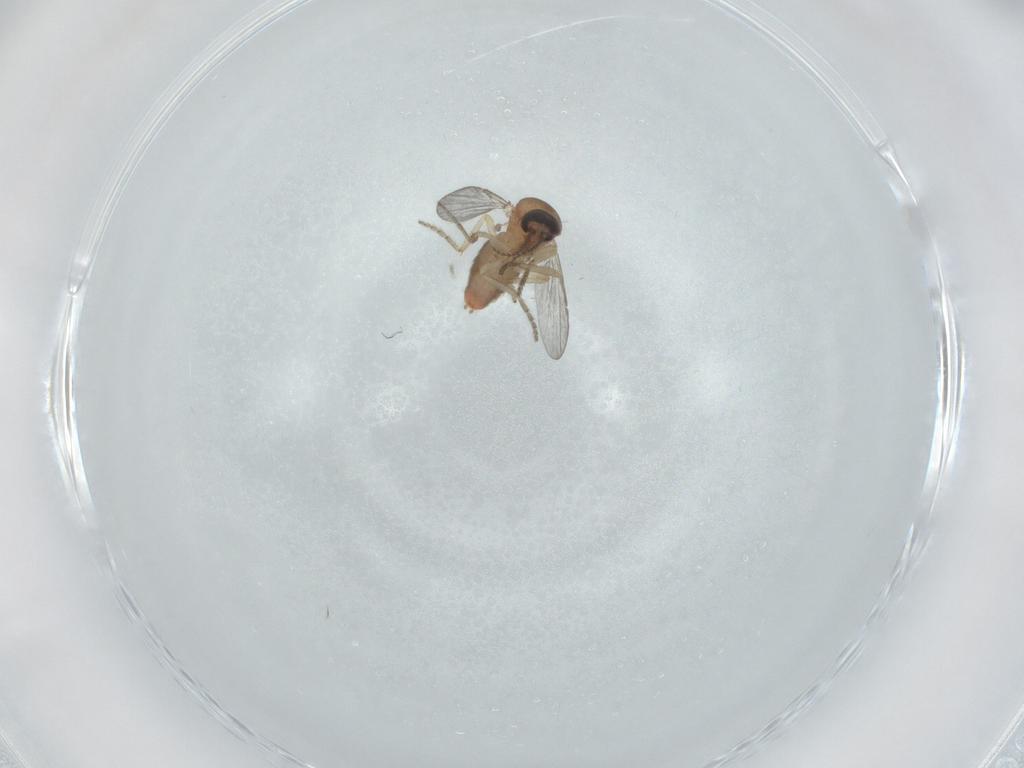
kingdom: Animalia
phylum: Arthropoda
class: Insecta
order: Diptera
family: Ceratopogonidae
